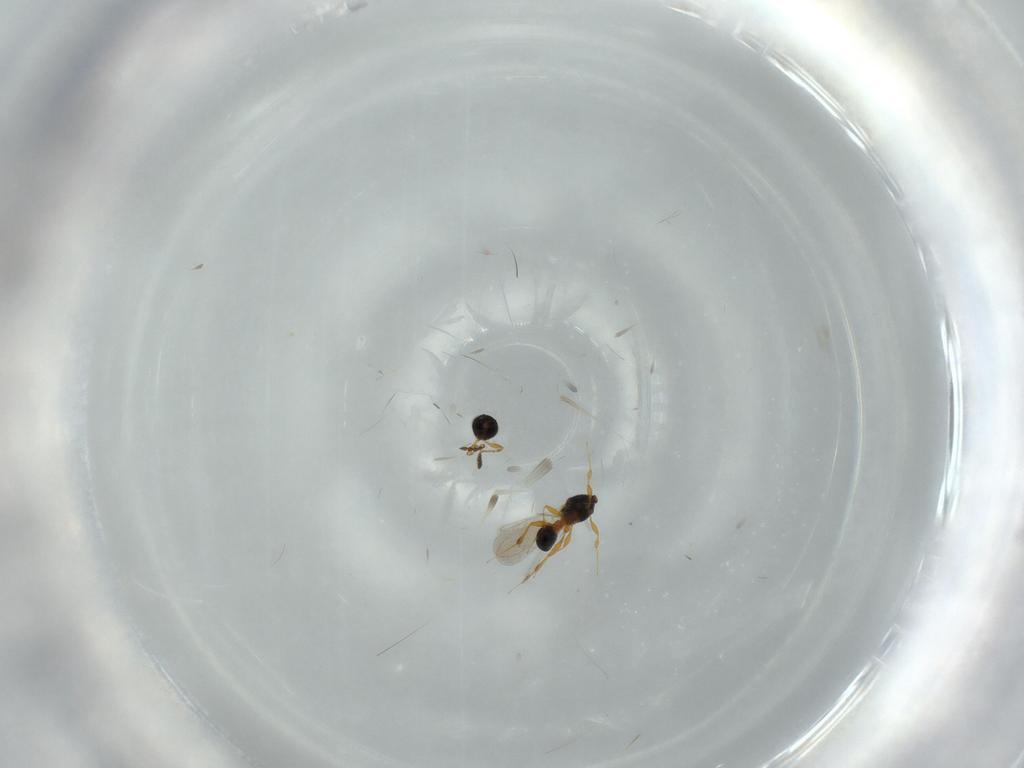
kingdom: Animalia
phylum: Arthropoda
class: Insecta
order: Hymenoptera
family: Platygastridae
